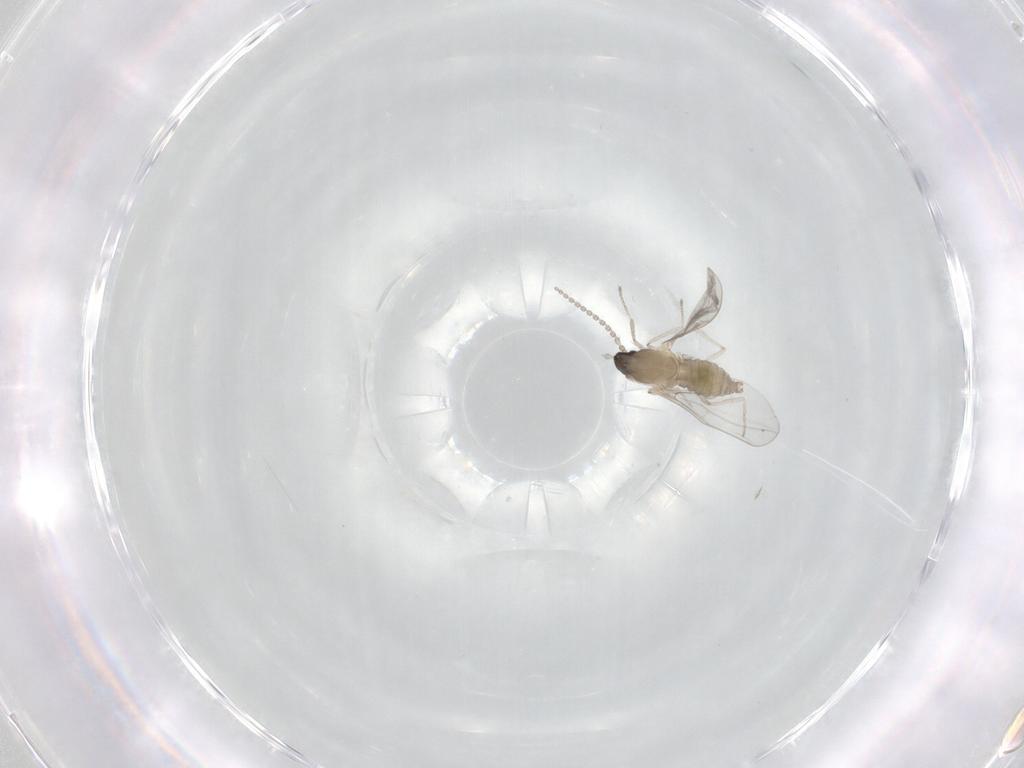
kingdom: Animalia
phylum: Arthropoda
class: Insecta
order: Diptera
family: Cecidomyiidae
